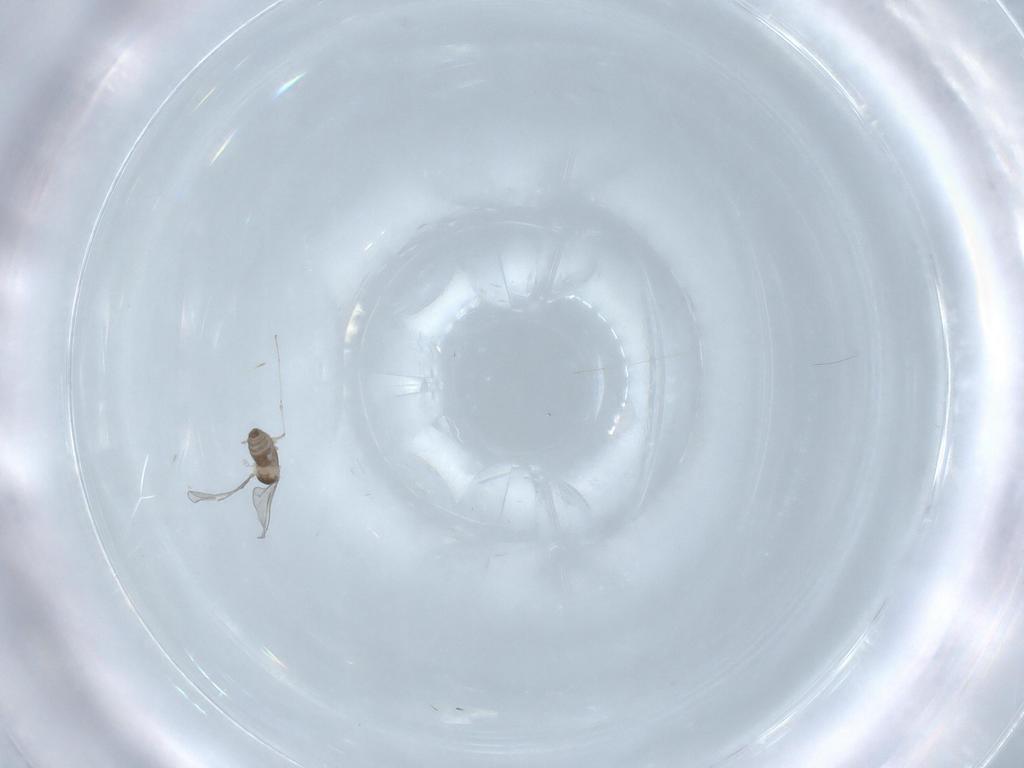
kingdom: Animalia
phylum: Arthropoda
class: Insecta
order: Diptera
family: Cecidomyiidae
